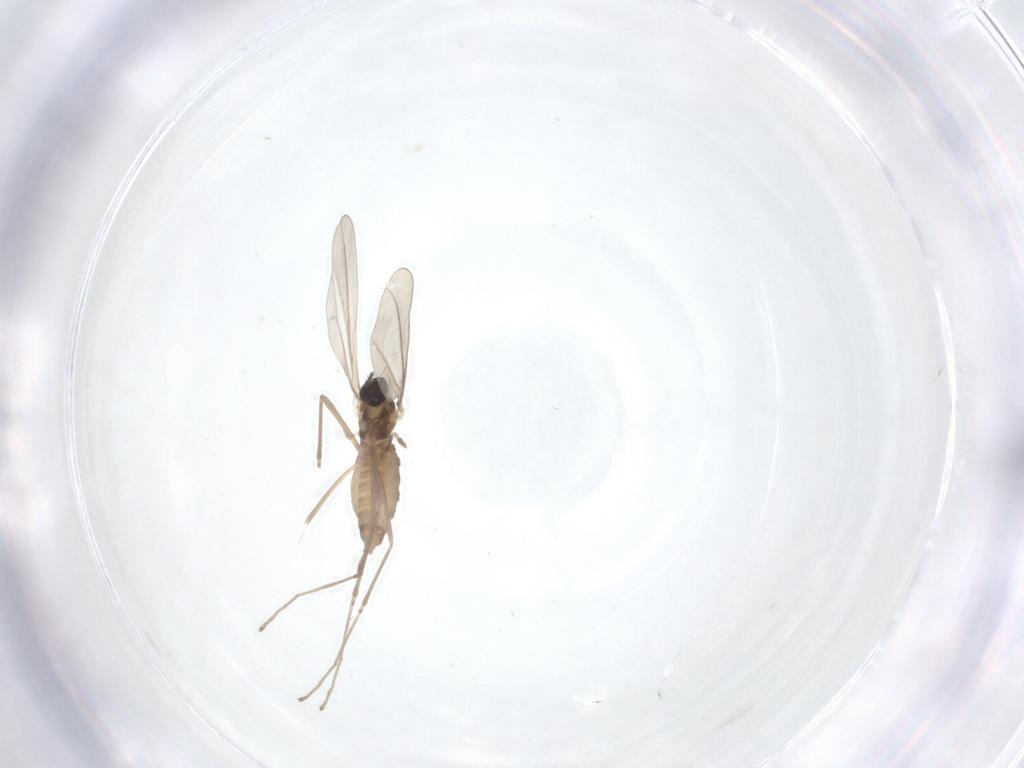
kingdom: Animalia
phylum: Arthropoda
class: Insecta
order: Diptera
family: Cecidomyiidae
